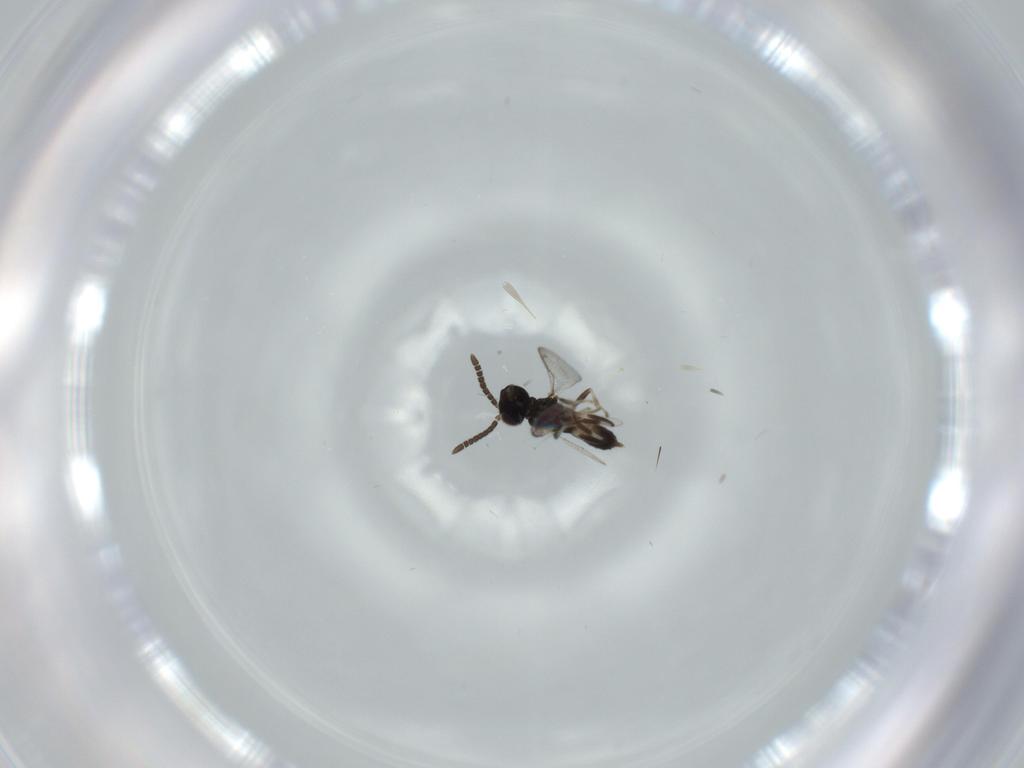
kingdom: Animalia
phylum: Arthropoda
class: Insecta
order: Hymenoptera
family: Eupelmidae
